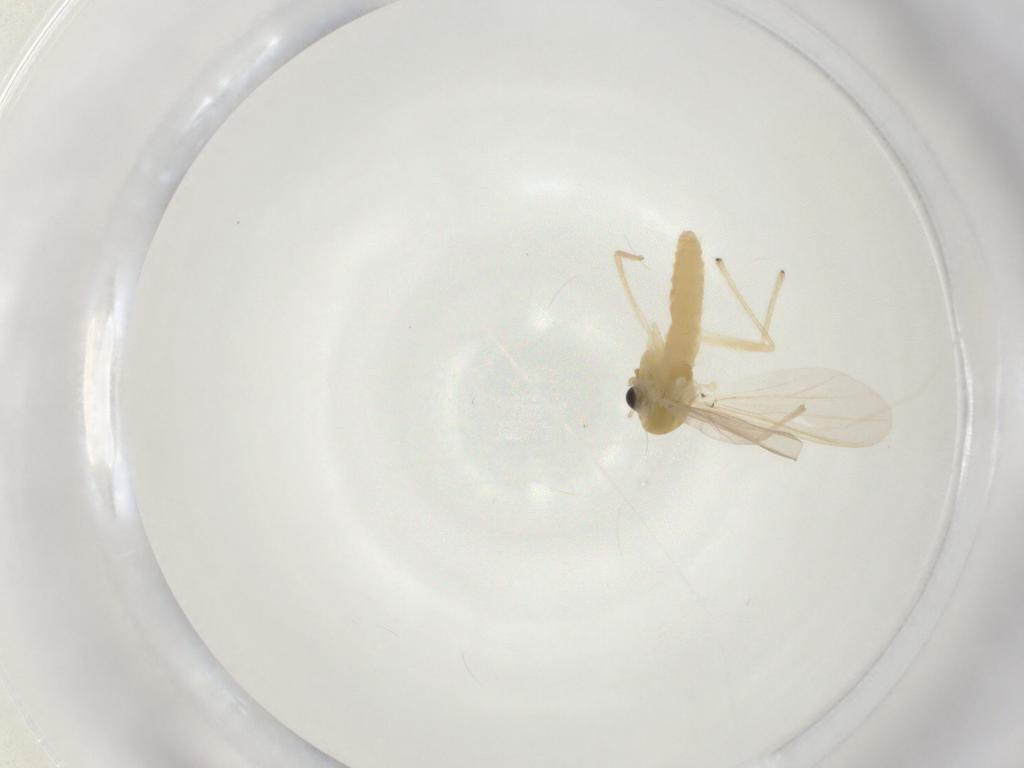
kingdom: Animalia
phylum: Arthropoda
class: Insecta
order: Diptera
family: Chironomidae
